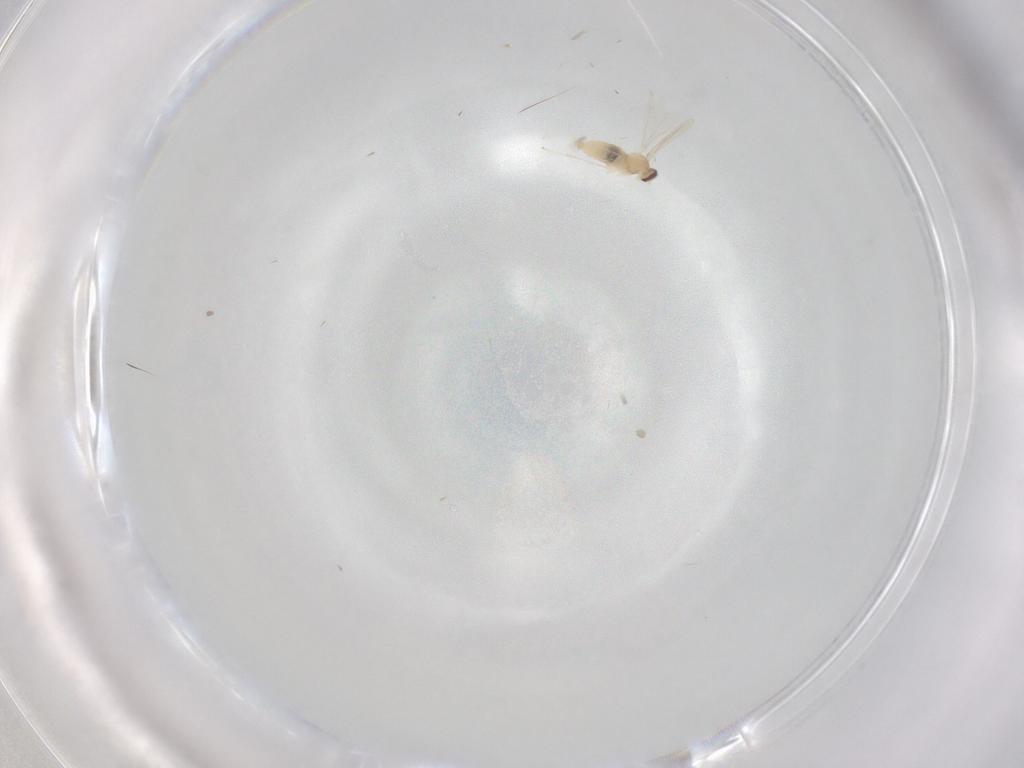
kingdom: Animalia
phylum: Arthropoda
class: Insecta
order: Diptera
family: Cecidomyiidae
